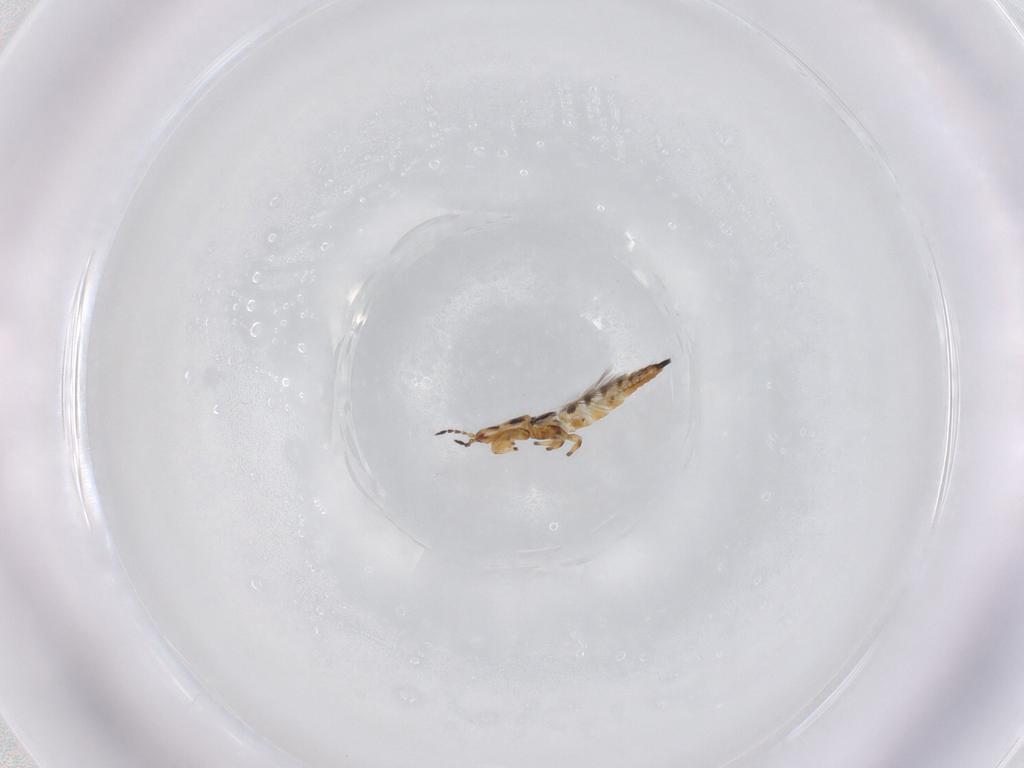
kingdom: Animalia
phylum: Arthropoda
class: Insecta
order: Thysanoptera
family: Phlaeothripidae
